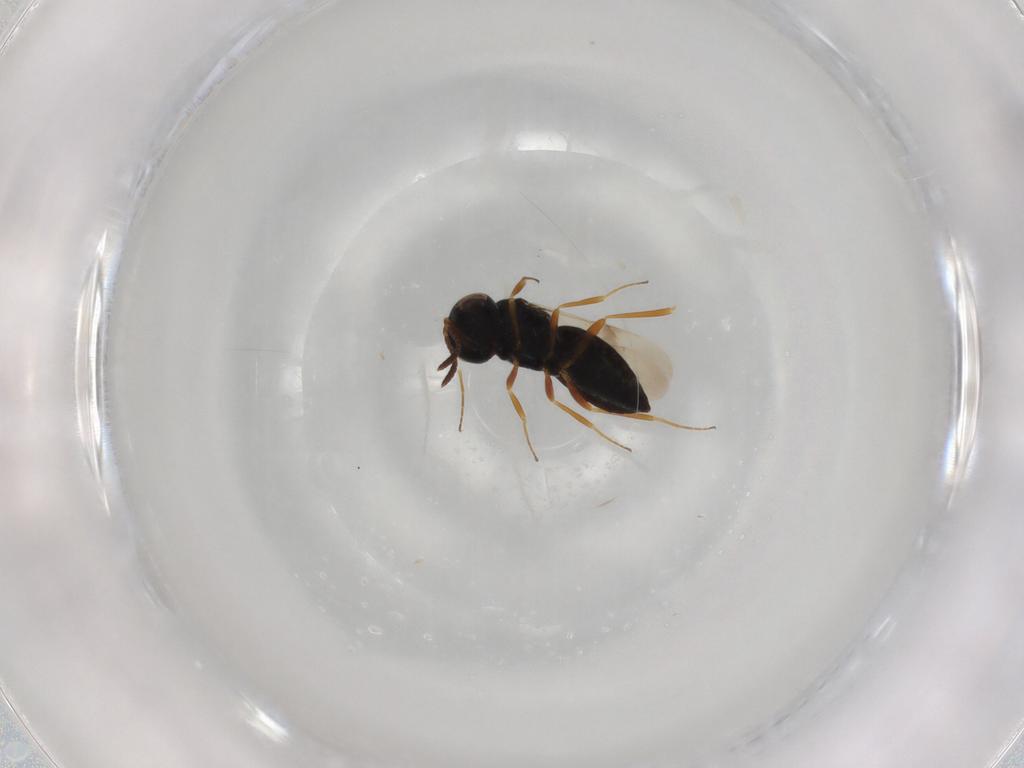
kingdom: Animalia
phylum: Arthropoda
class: Insecta
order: Hymenoptera
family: Scelionidae
